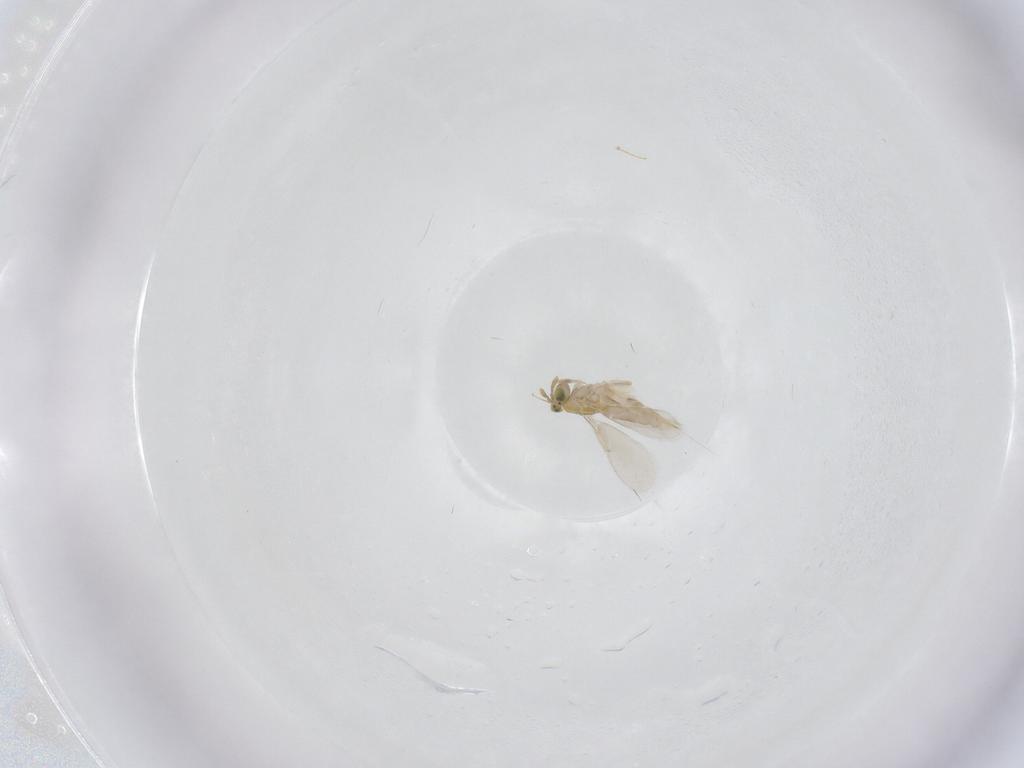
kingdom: Animalia
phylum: Arthropoda
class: Insecta
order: Hymenoptera
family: Aphelinidae
